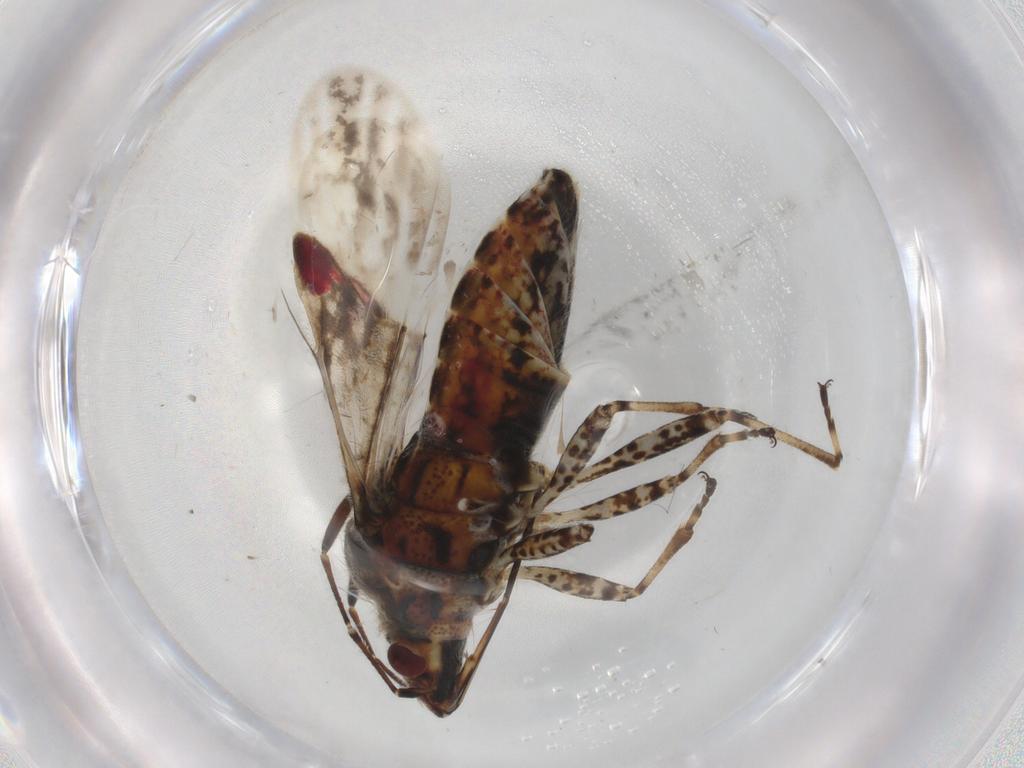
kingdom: Animalia
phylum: Arthropoda
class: Insecta
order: Hemiptera
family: Lygaeidae
